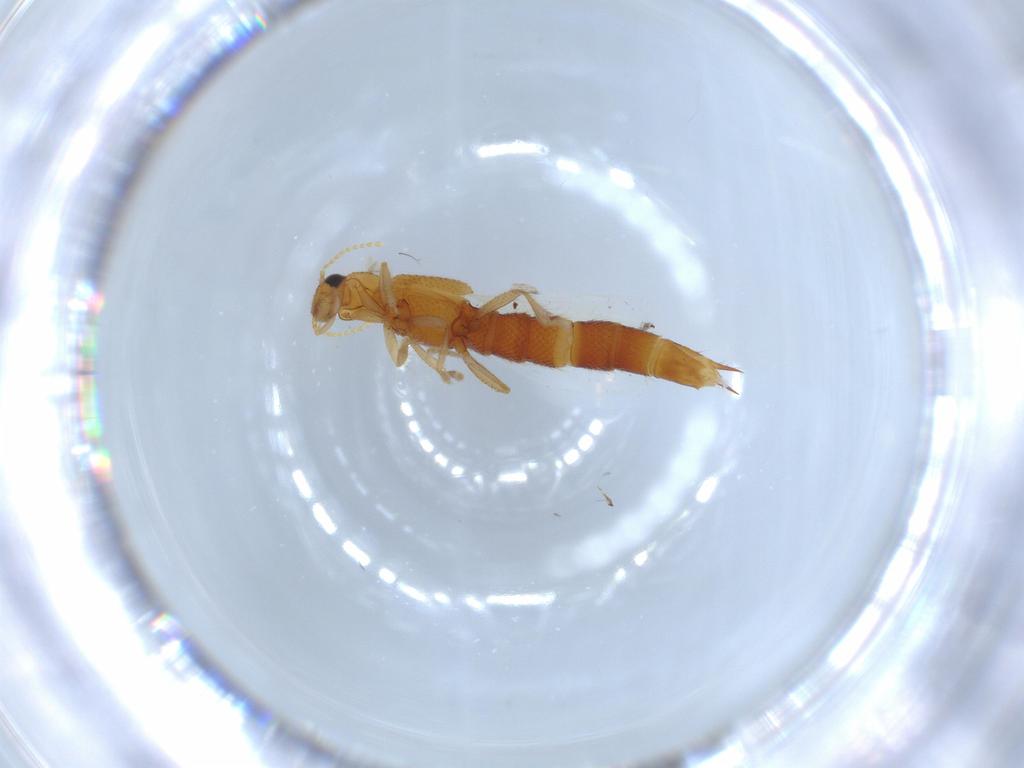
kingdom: Animalia
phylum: Arthropoda
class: Insecta
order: Coleoptera
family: Staphylinidae
